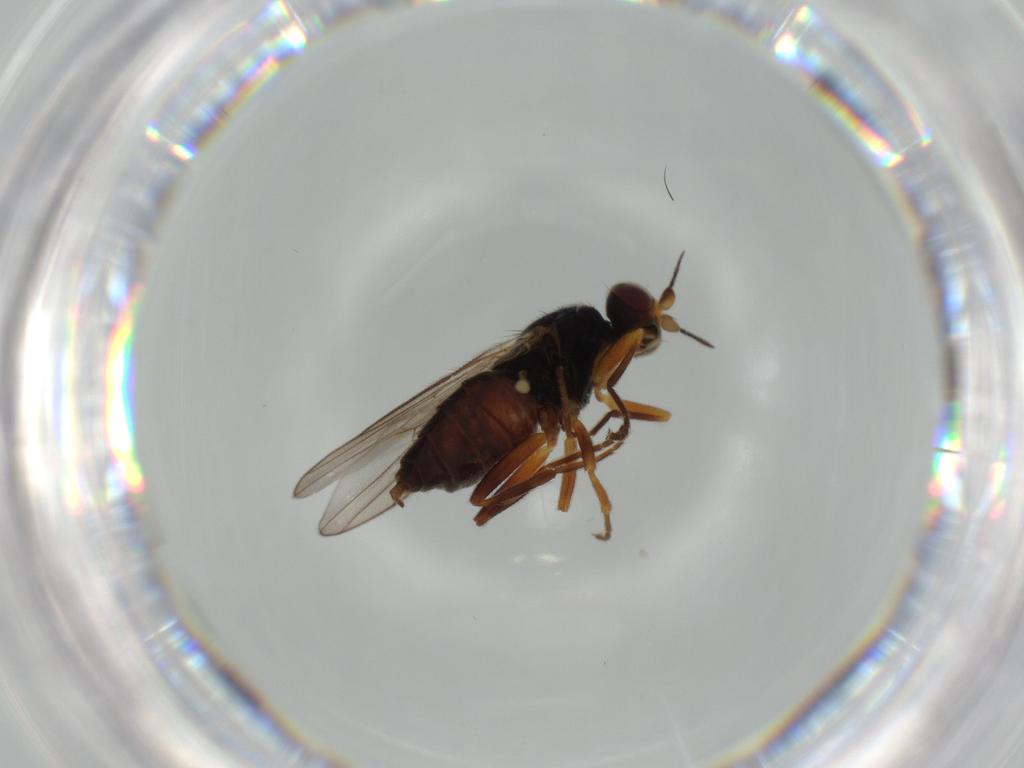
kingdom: Animalia
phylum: Arthropoda
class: Insecta
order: Diptera
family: Chloropidae
